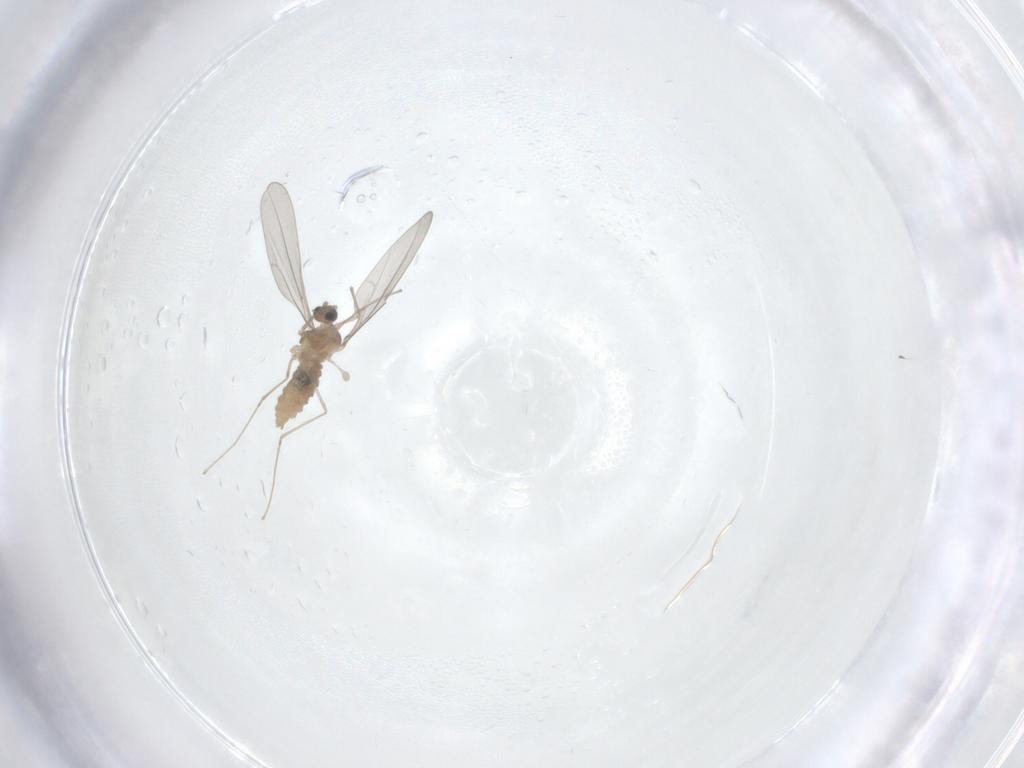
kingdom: Animalia
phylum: Arthropoda
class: Insecta
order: Diptera
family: Cecidomyiidae
